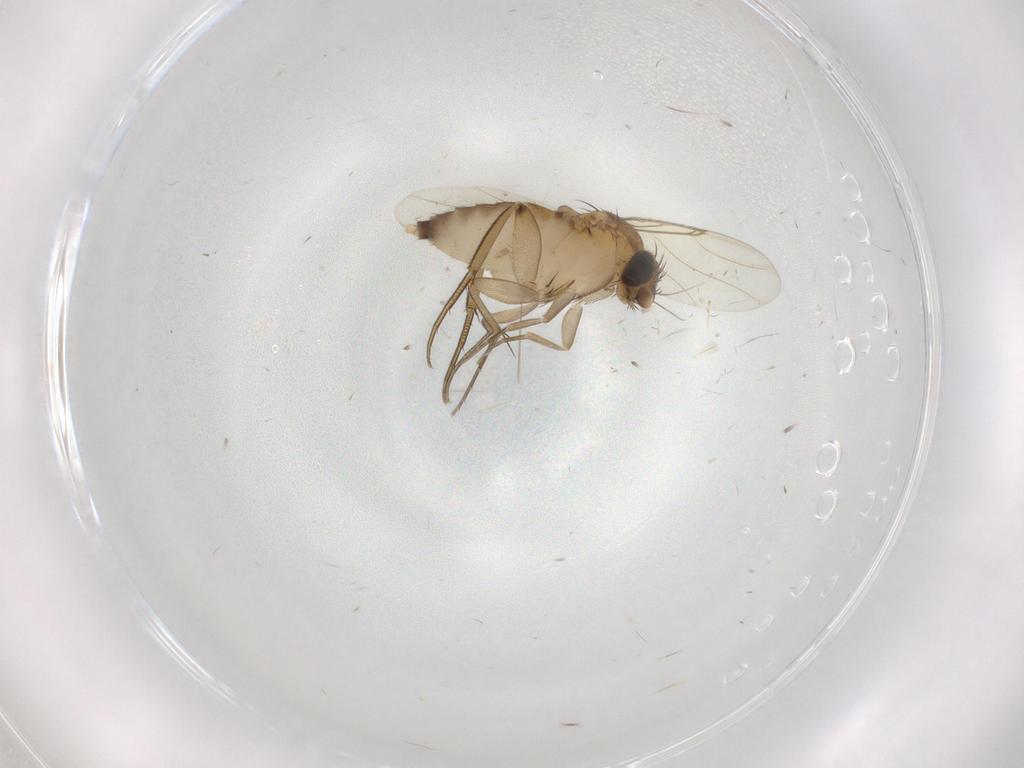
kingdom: Animalia
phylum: Arthropoda
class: Insecta
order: Diptera
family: Phoridae
